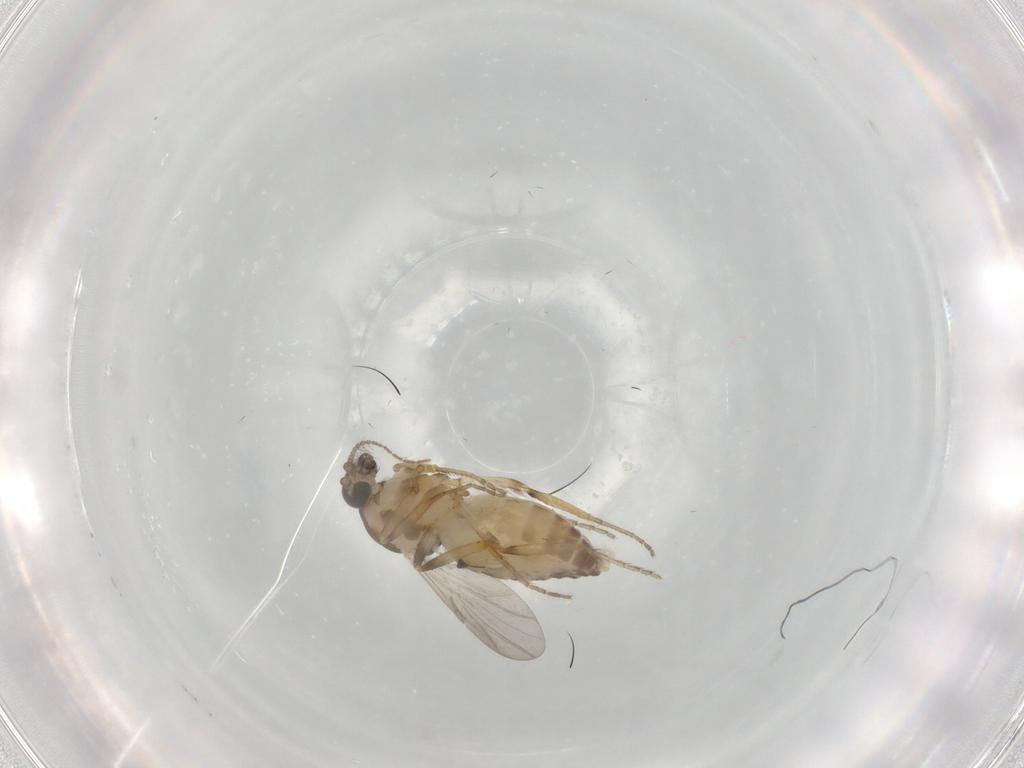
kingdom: Animalia
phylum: Arthropoda
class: Insecta
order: Diptera
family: Ceratopogonidae
